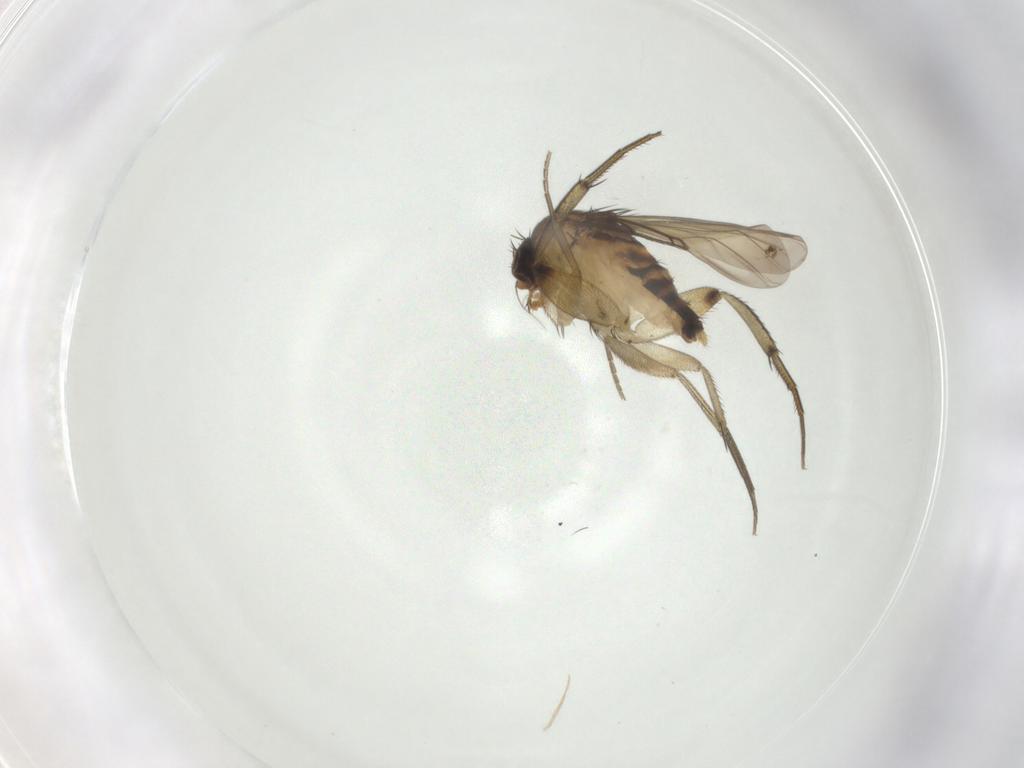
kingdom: Animalia
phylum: Arthropoda
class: Insecta
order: Diptera
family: Phoridae
